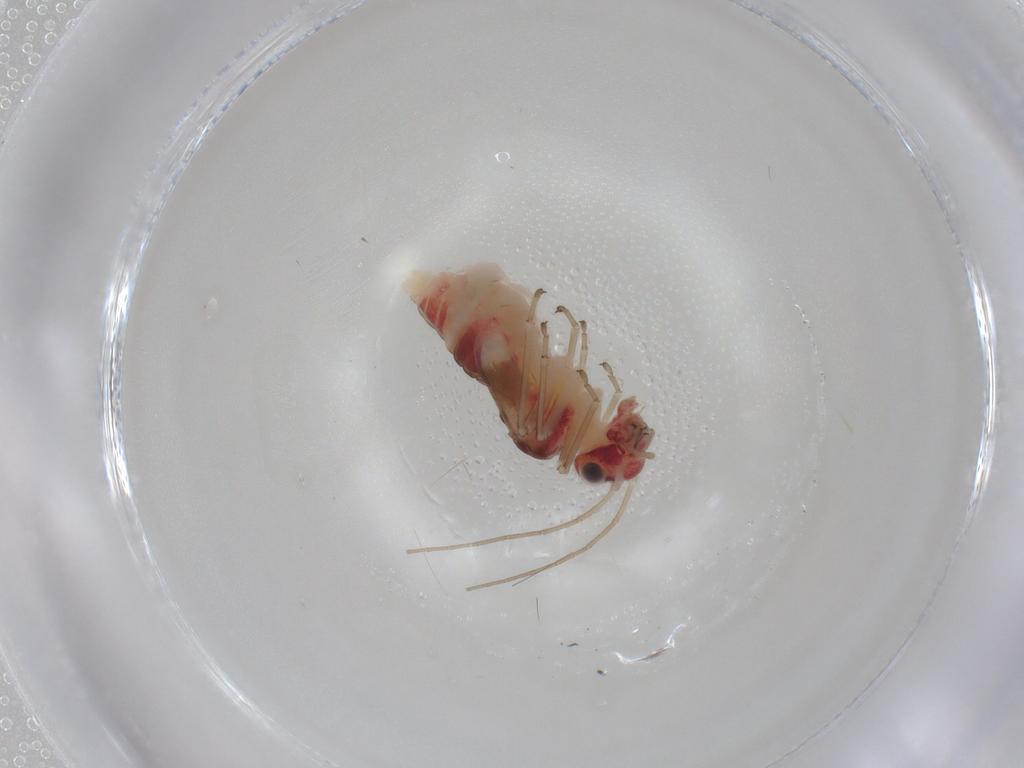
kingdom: Animalia
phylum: Arthropoda
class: Insecta
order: Psocodea
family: Caeciliusidae
